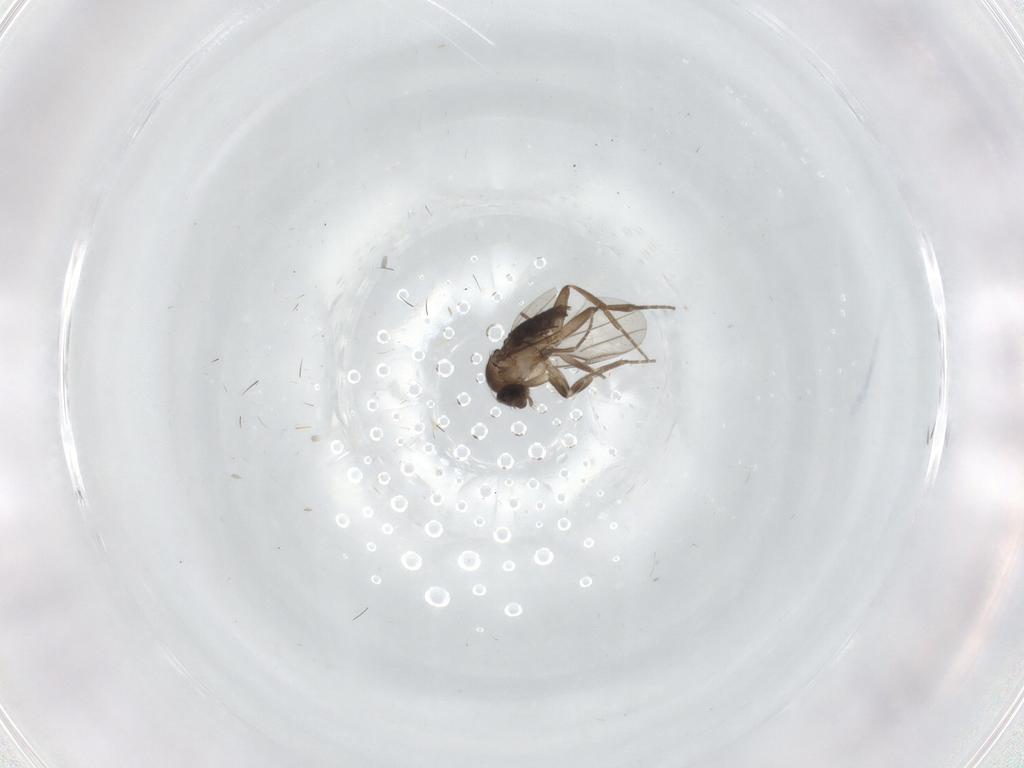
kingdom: Animalia
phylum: Arthropoda
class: Insecta
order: Diptera
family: Ceratopogonidae
